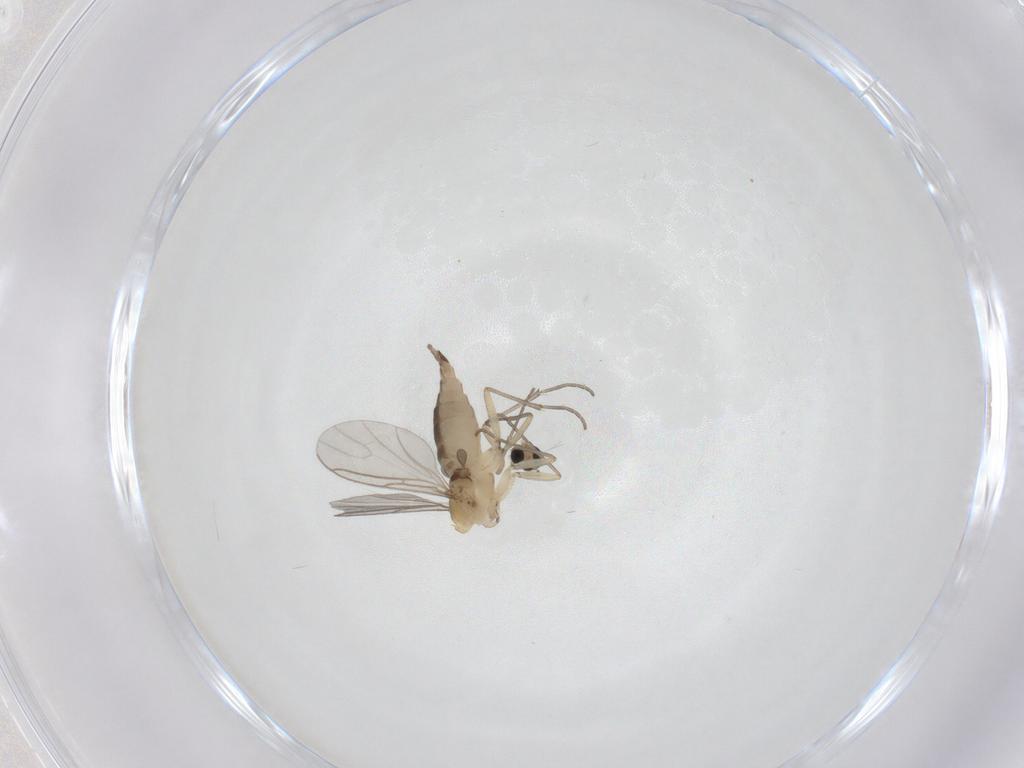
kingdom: Animalia
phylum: Arthropoda
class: Insecta
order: Diptera
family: Sciaridae
